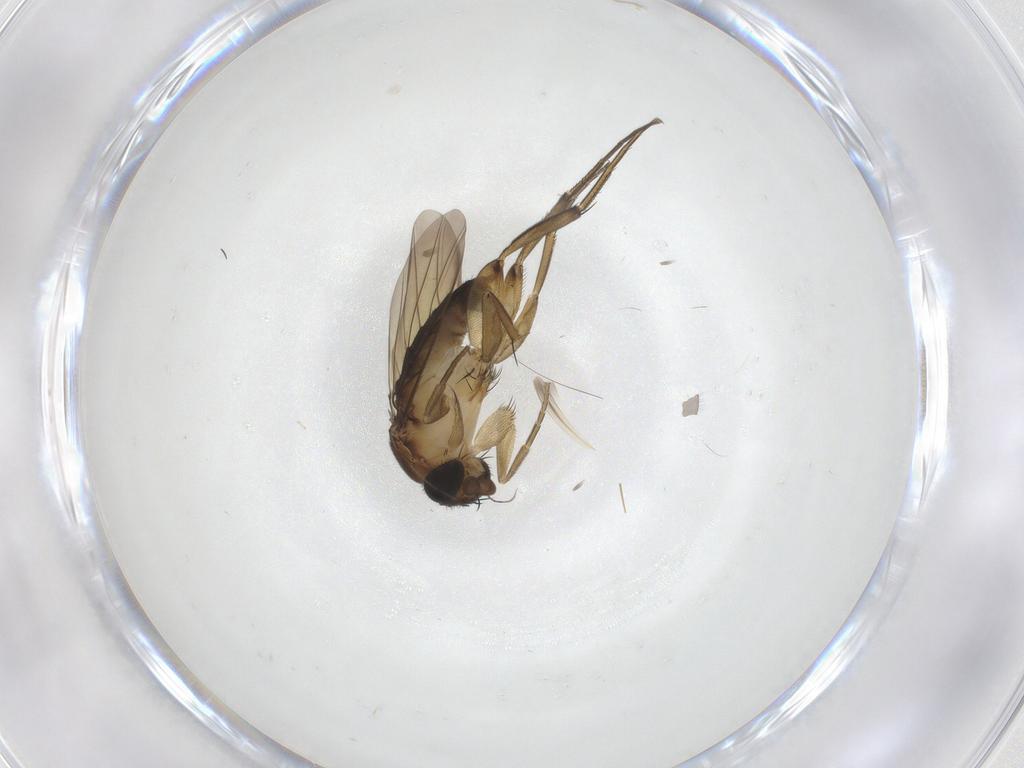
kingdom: Animalia
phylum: Arthropoda
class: Insecta
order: Diptera
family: Phoridae
